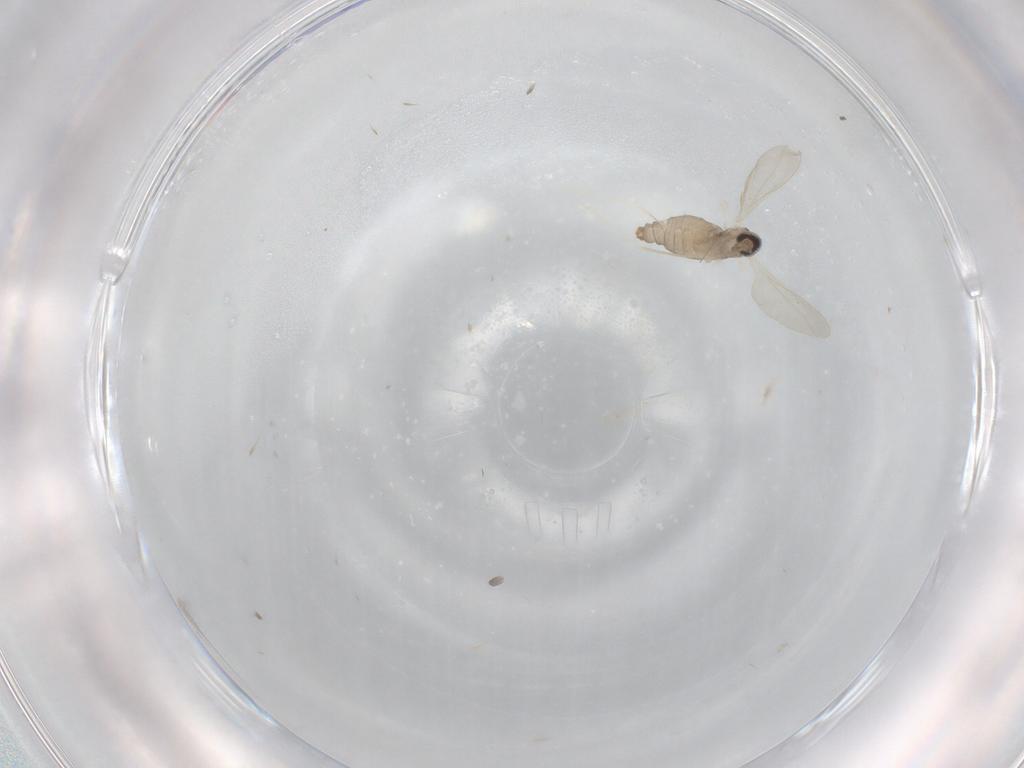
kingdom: Animalia
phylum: Arthropoda
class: Insecta
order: Diptera
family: Cecidomyiidae
